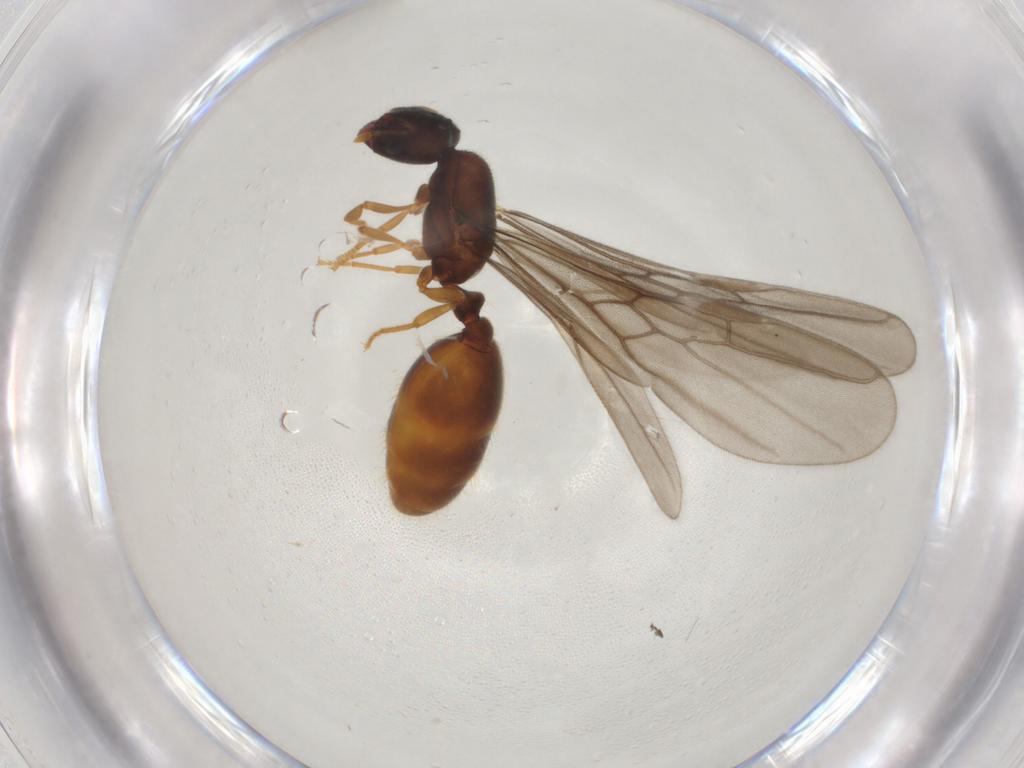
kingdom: Animalia
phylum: Arthropoda
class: Insecta
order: Hymenoptera
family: Formicidae
